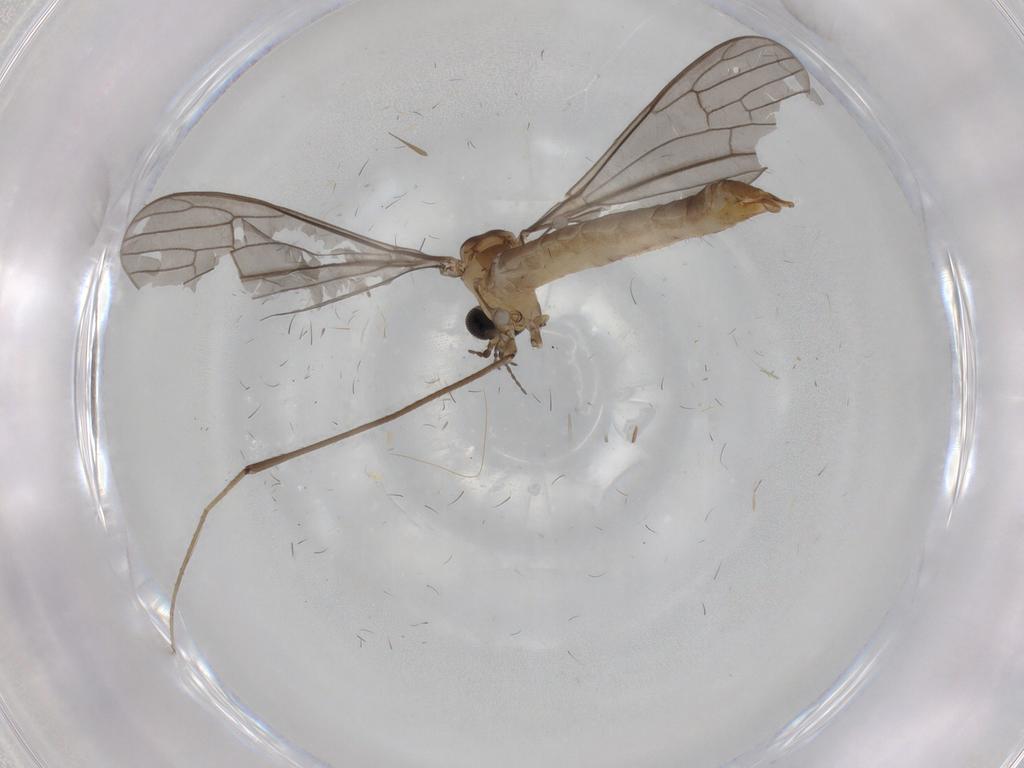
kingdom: Animalia
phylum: Arthropoda
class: Insecta
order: Diptera
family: Limoniidae
